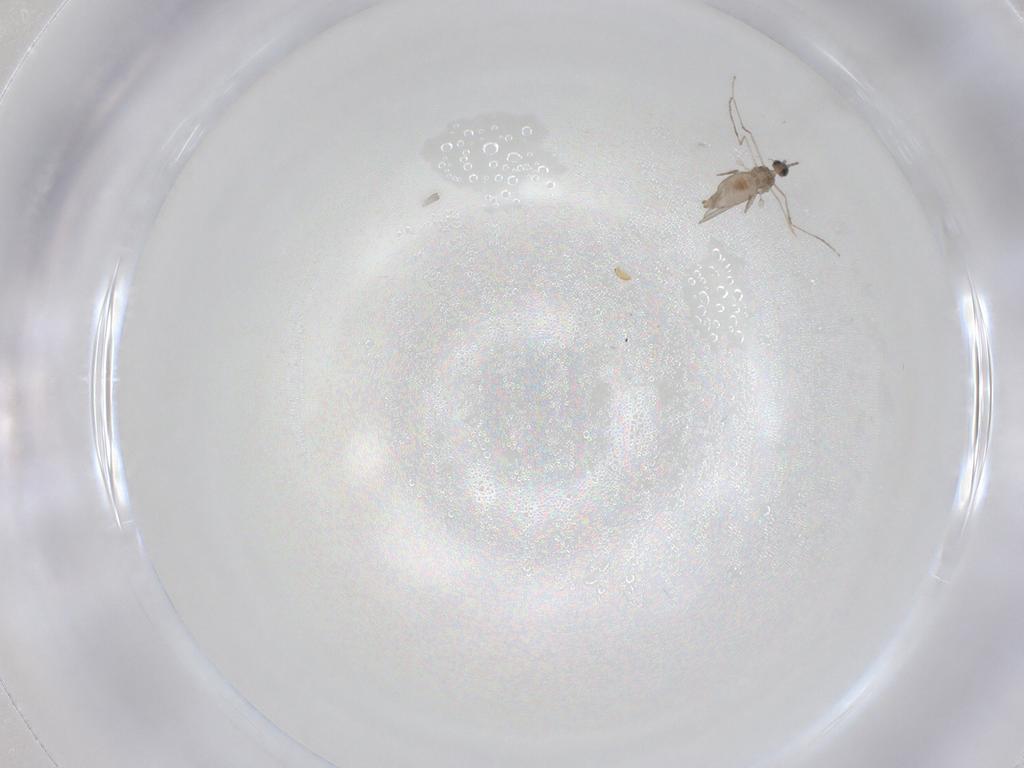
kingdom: Animalia
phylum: Arthropoda
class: Insecta
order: Diptera
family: Cecidomyiidae
